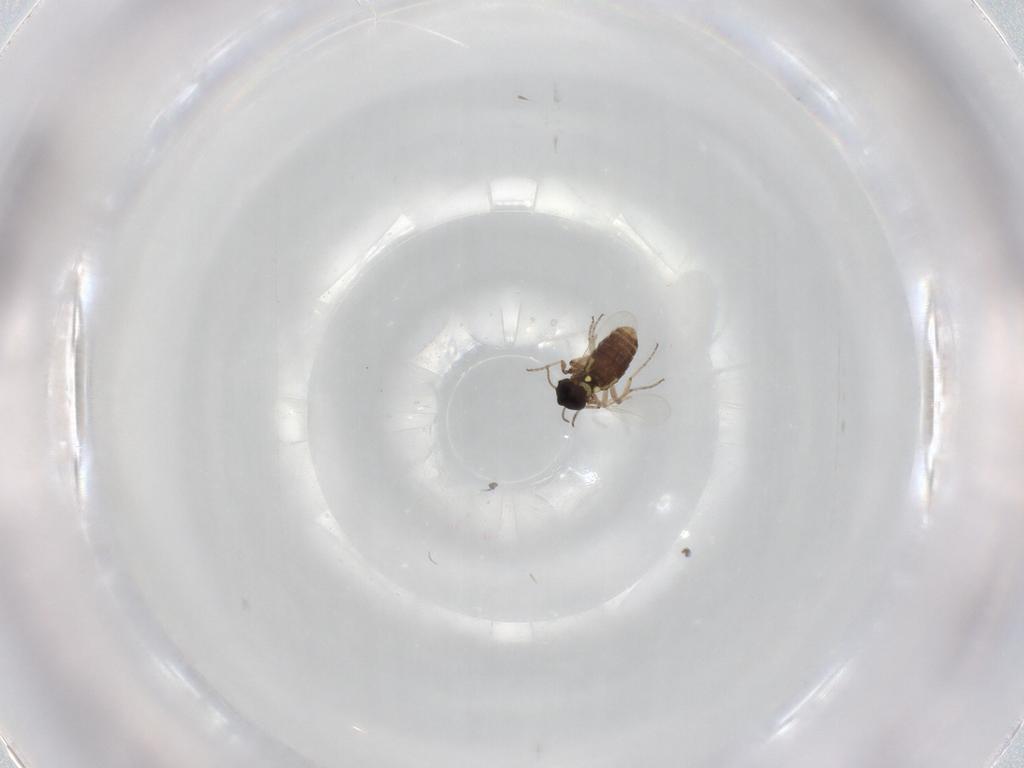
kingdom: Animalia
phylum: Arthropoda
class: Insecta
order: Diptera
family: Ceratopogonidae
